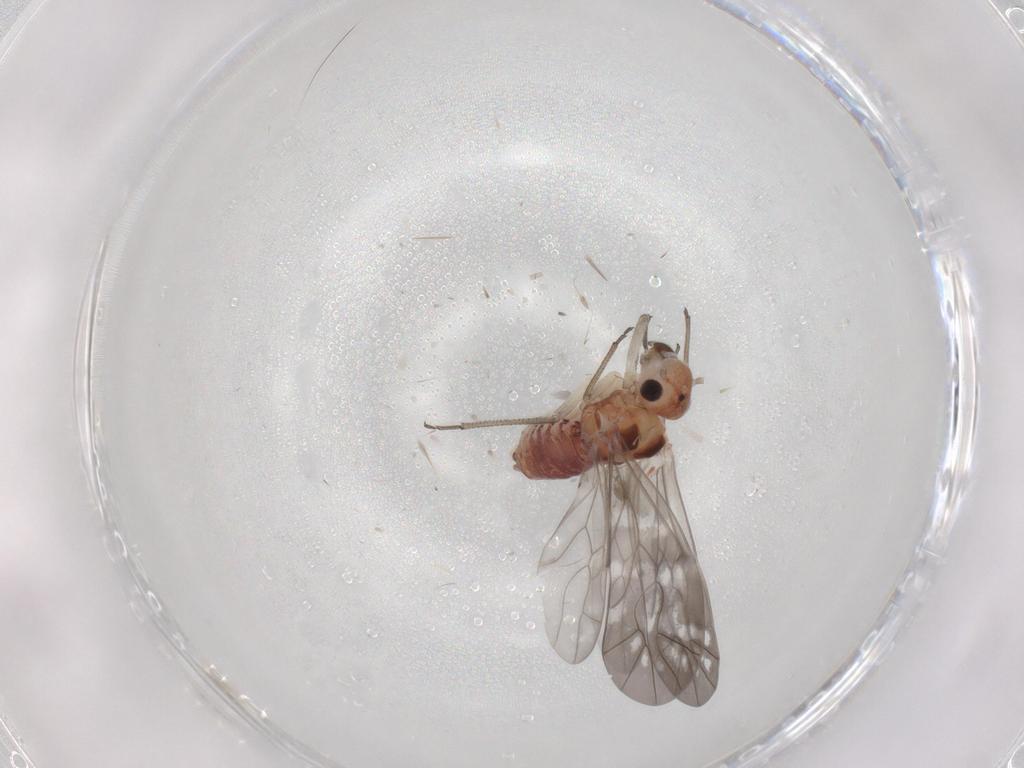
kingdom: Animalia
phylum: Arthropoda
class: Insecta
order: Psocodea
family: Ectopsocidae
